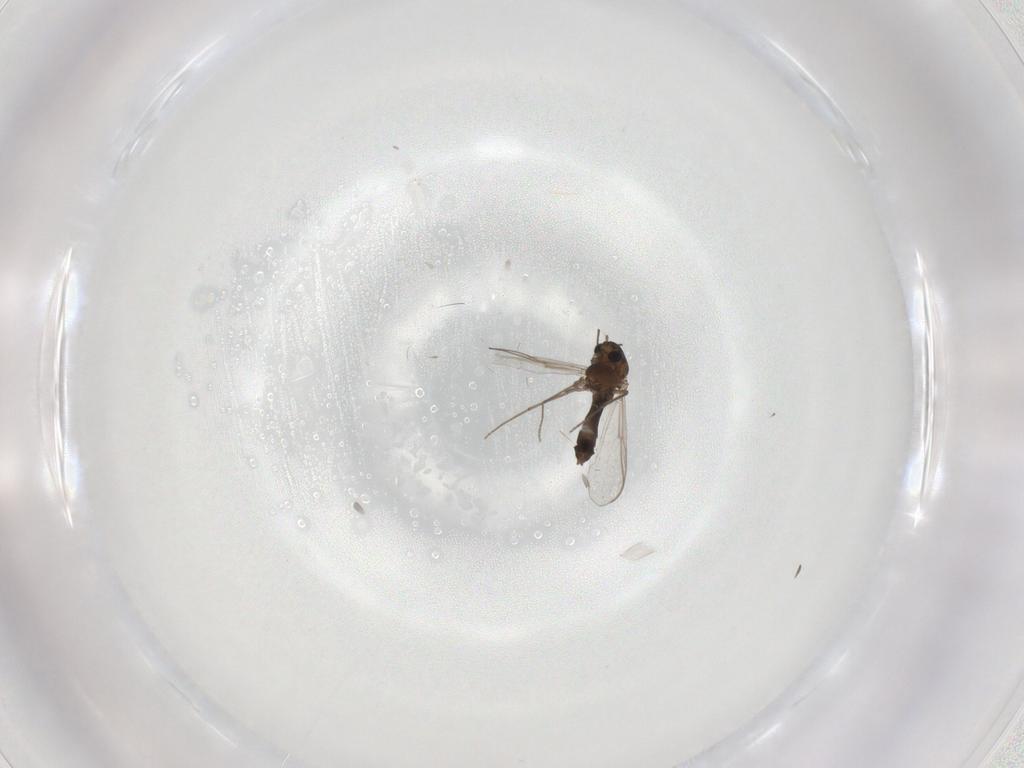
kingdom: Animalia
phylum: Arthropoda
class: Insecta
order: Diptera
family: Chironomidae
